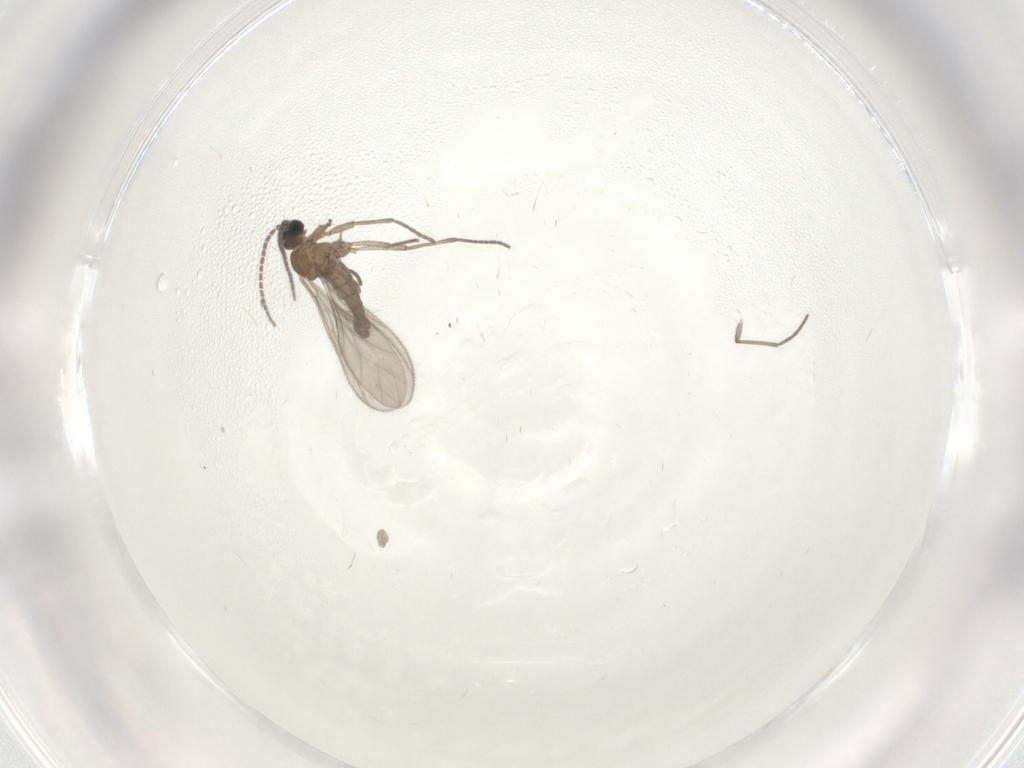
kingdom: Animalia
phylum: Arthropoda
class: Insecta
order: Diptera
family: Sciaridae
